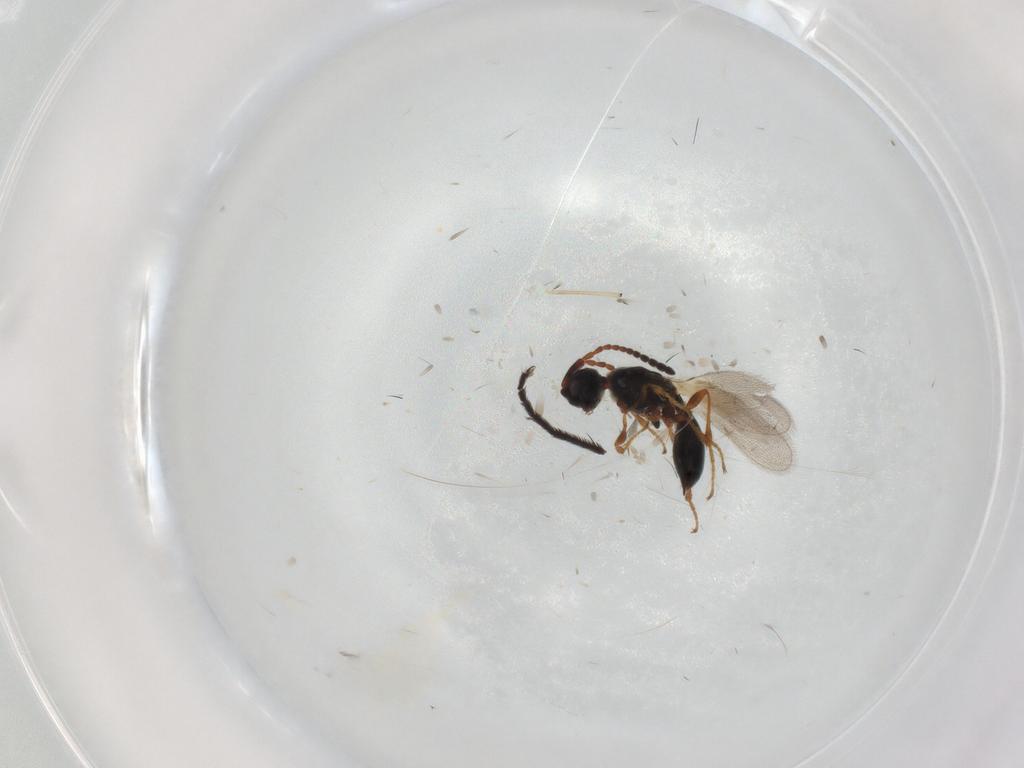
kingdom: Animalia
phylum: Arthropoda
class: Insecta
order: Hymenoptera
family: Diapriidae
